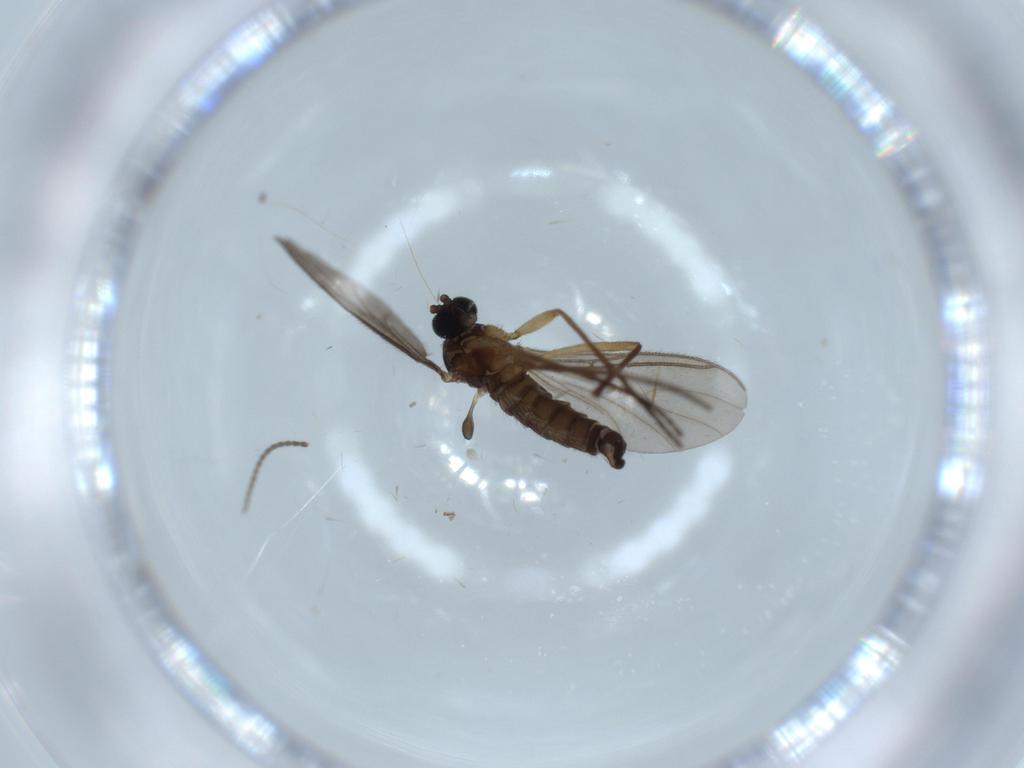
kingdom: Animalia
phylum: Arthropoda
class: Insecta
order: Diptera
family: Sciaridae
